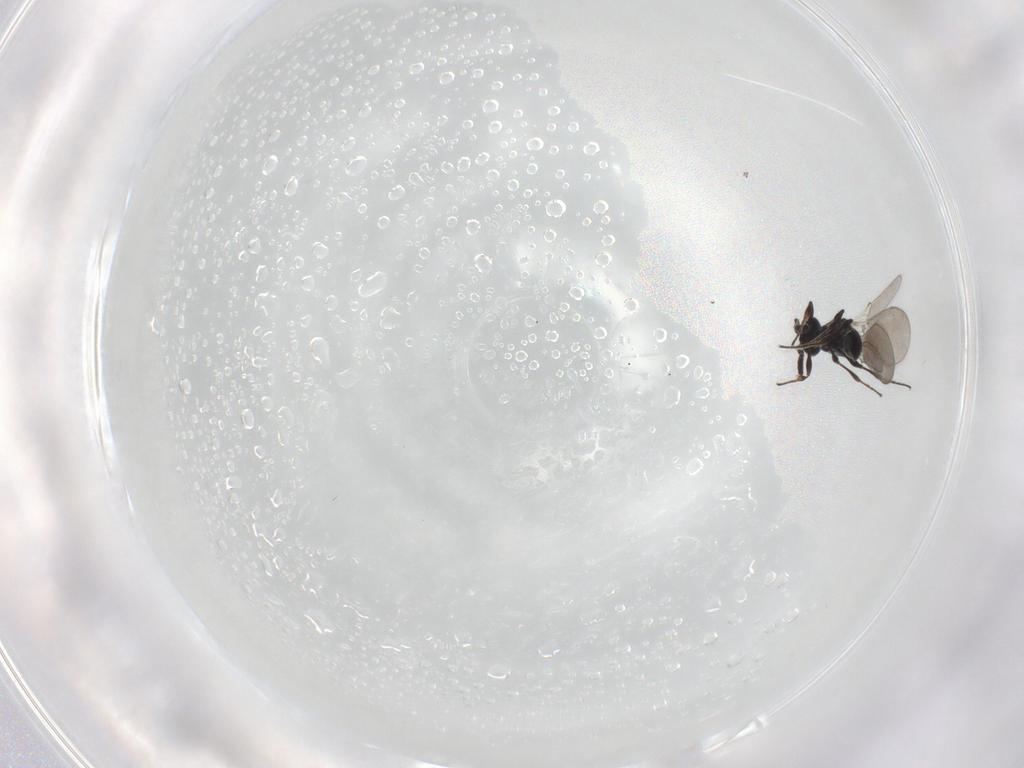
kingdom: Animalia
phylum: Arthropoda
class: Insecta
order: Hymenoptera
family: Platygastridae
